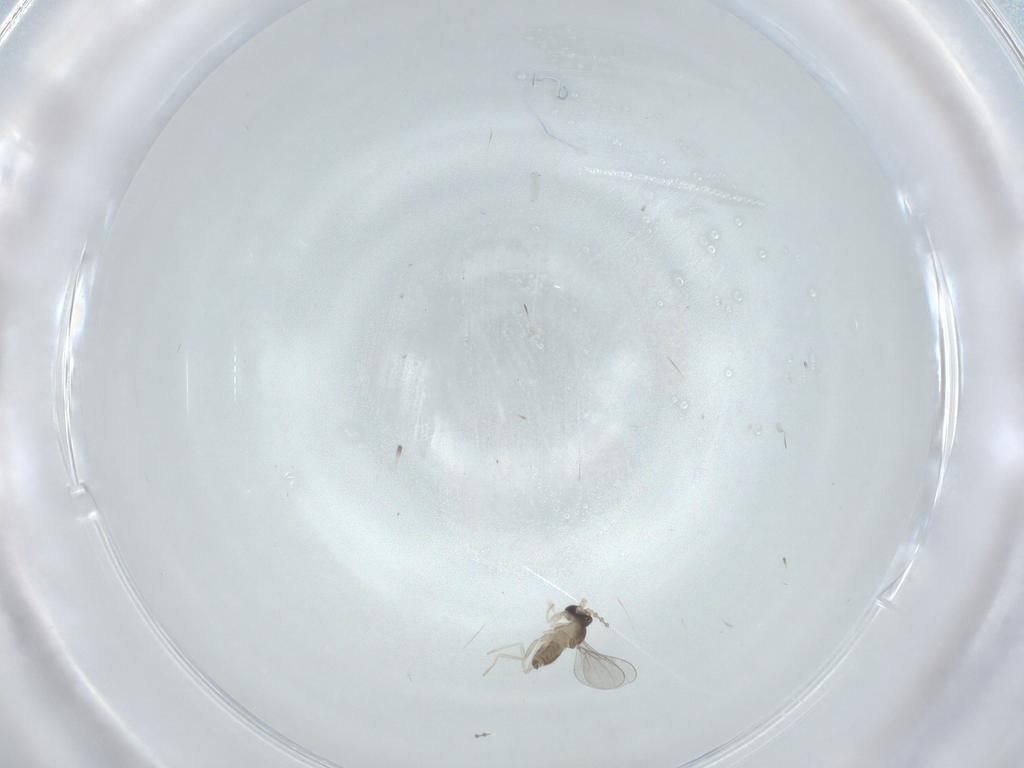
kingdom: Animalia
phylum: Arthropoda
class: Insecta
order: Diptera
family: Cecidomyiidae
